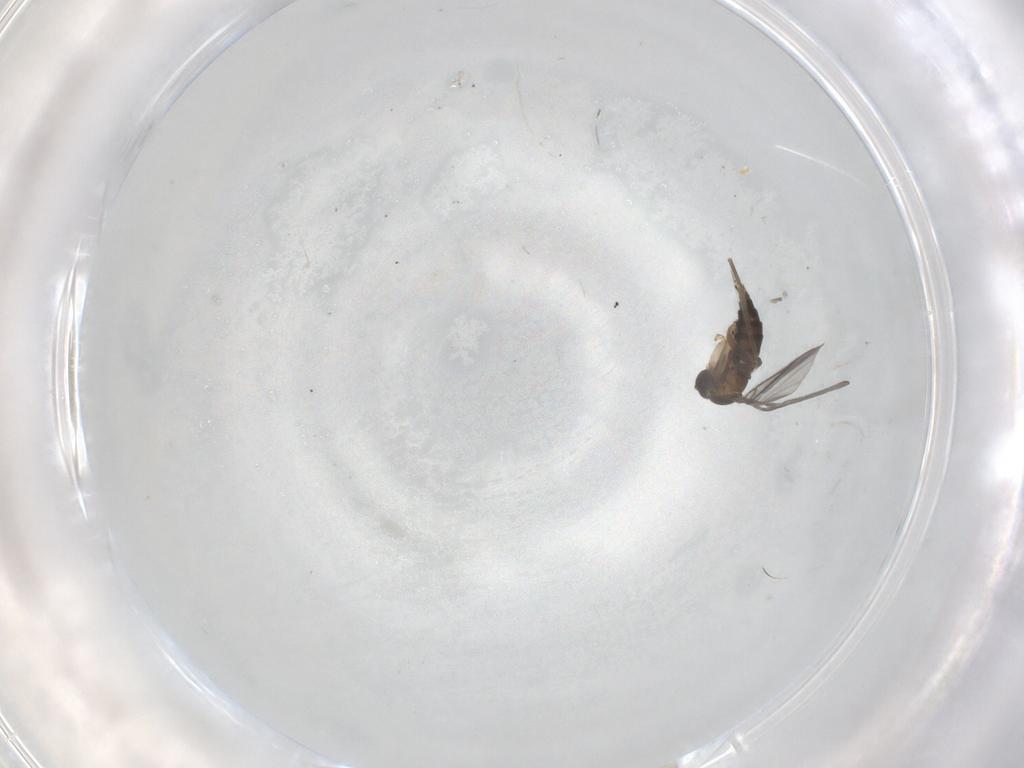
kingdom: Animalia
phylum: Arthropoda
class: Insecta
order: Diptera
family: Sciaridae
